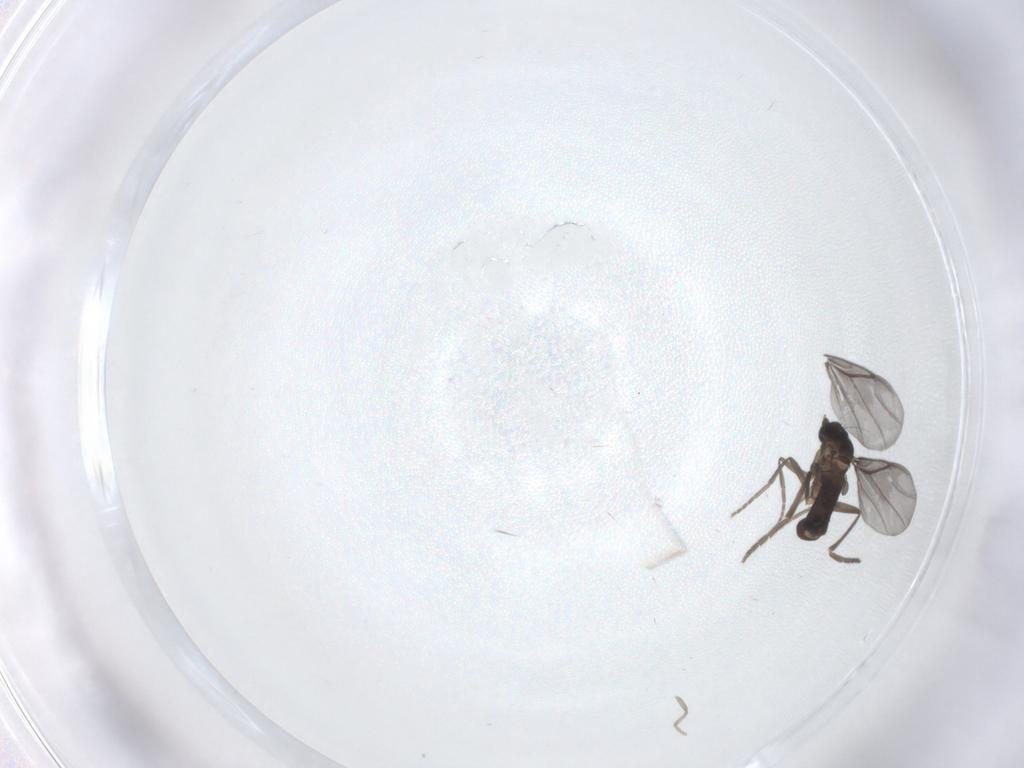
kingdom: Animalia
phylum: Arthropoda
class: Insecta
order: Diptera
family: Phoridae
